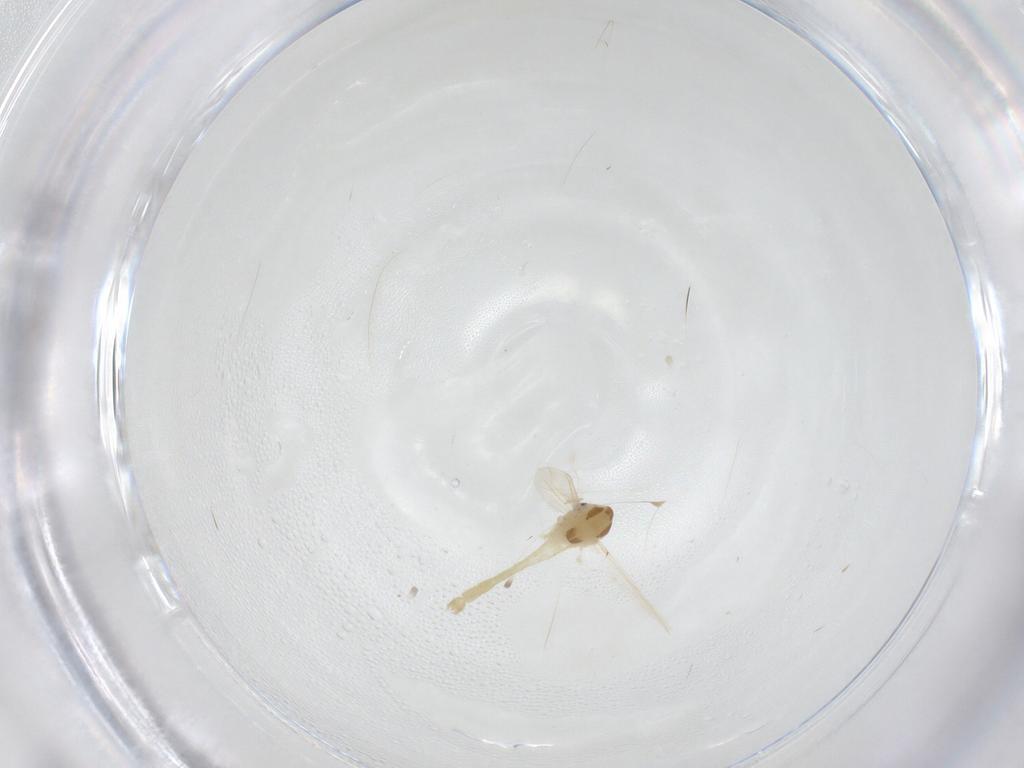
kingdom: Animalia
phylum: Arthropoda
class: Insecta
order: Diptera
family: Chironomidae
